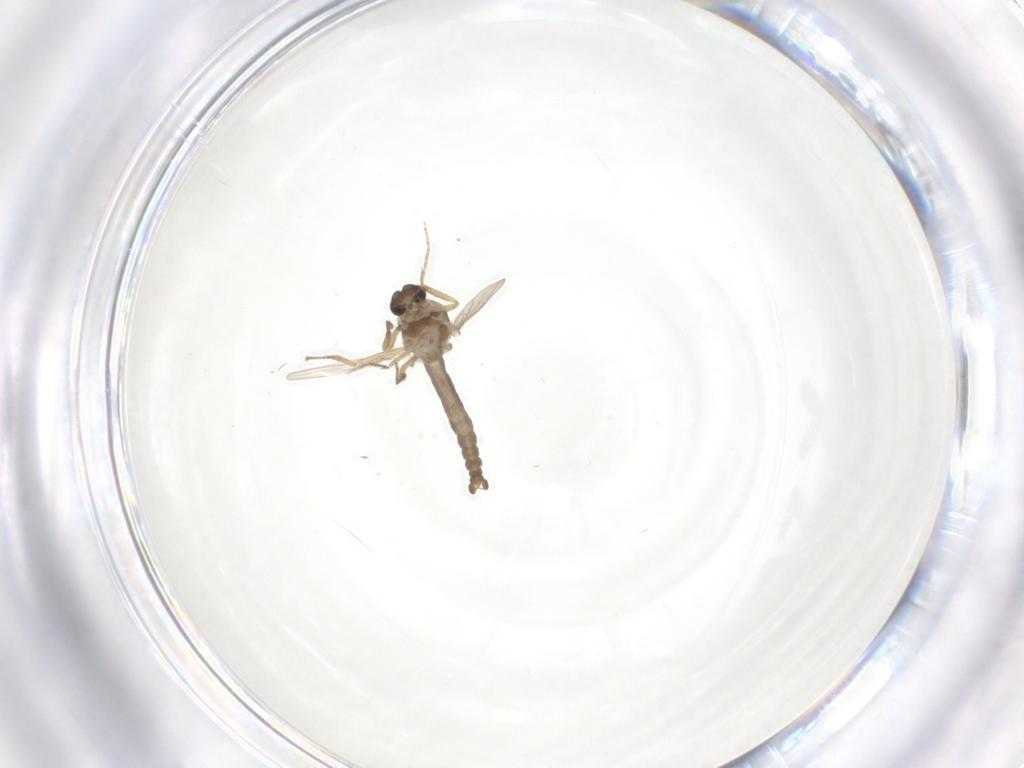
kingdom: Animalia
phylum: Arthropoda
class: Insecta
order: Diptera
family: Ceratopogonidae
